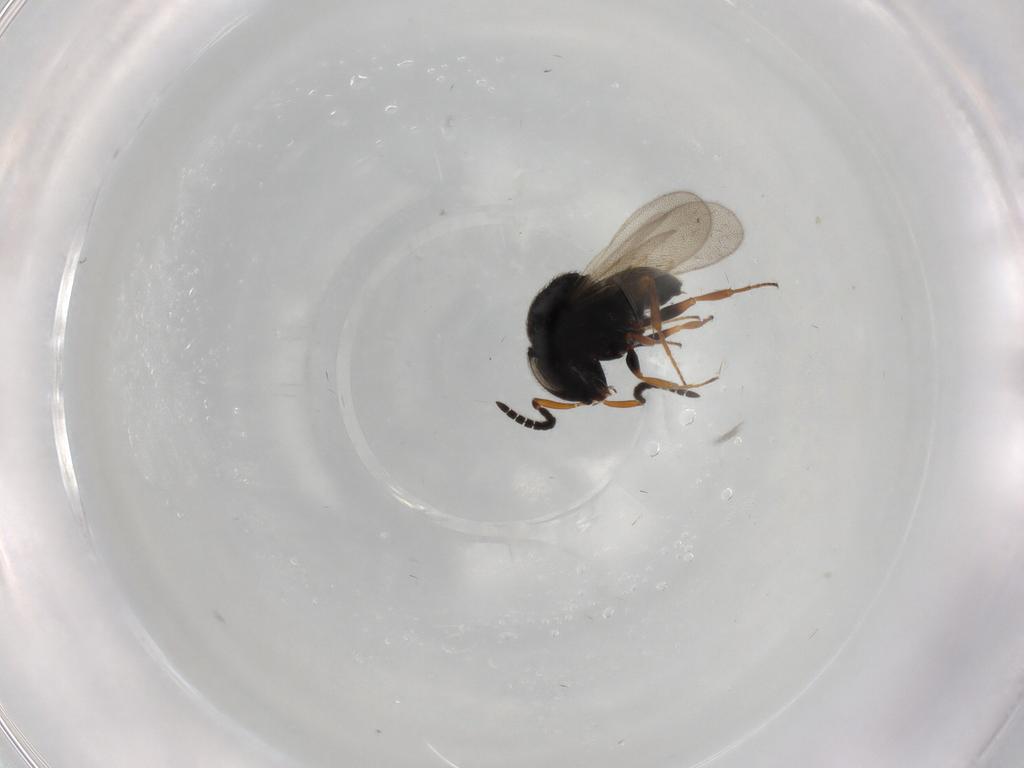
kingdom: Animalia
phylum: Arthropoda
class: Insecta
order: Hymenoptera
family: Scelionidae
